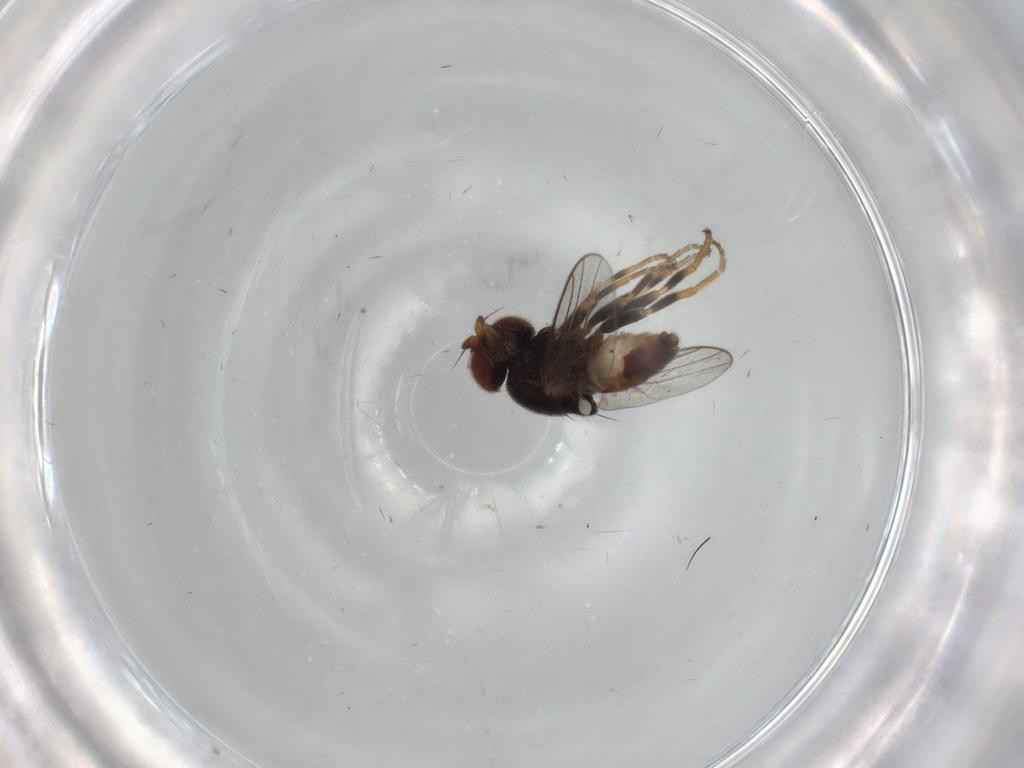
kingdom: Animalia
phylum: Arthropoda
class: Insecta
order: Diptera
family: Chloropidae
